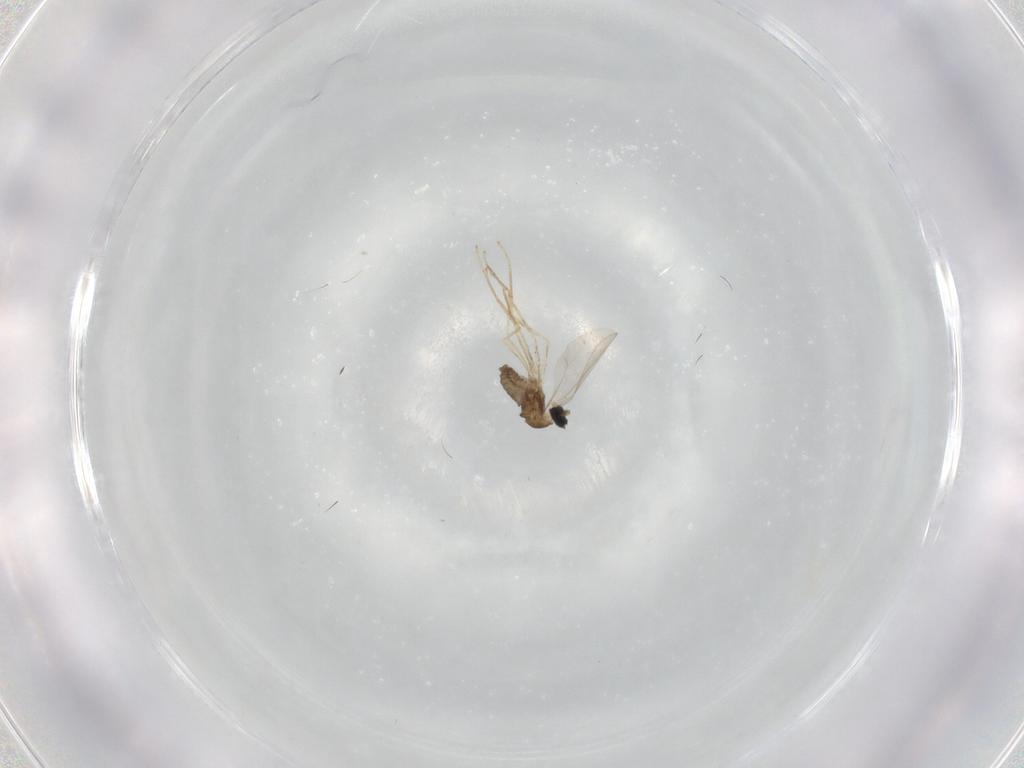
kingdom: Animalia
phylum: Arthropoda
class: Insecta
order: Diptera
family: Cecidomyiidae
